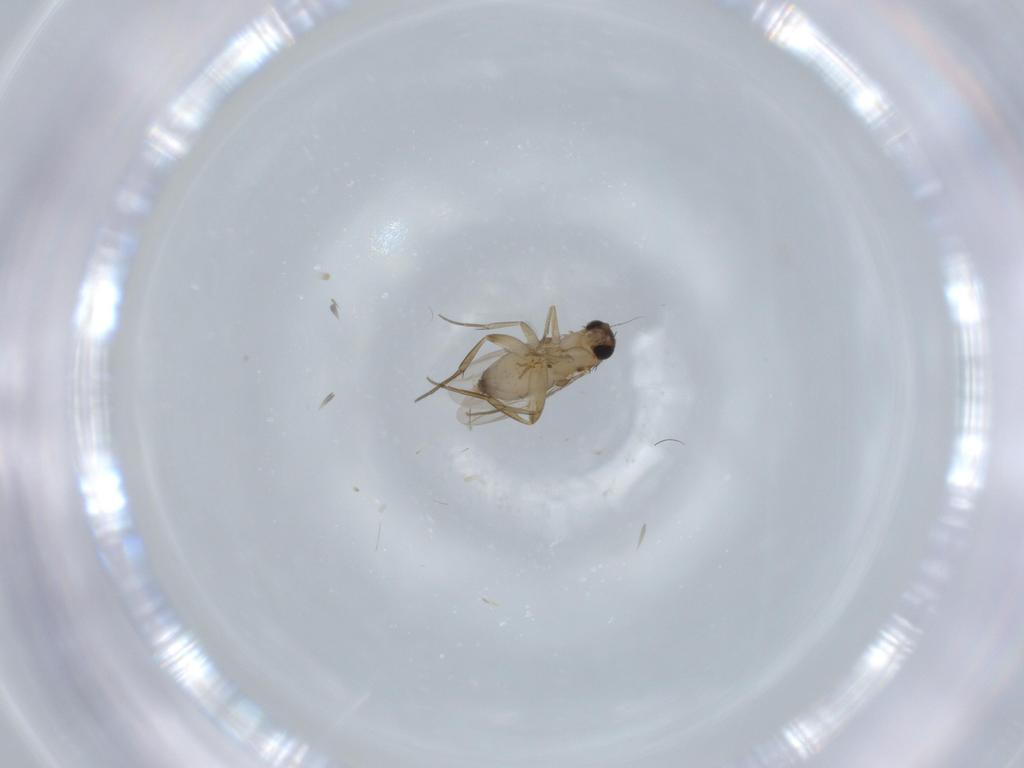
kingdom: Animalia
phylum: Arthropoda
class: Insecta
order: Diptera
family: Phoridae
